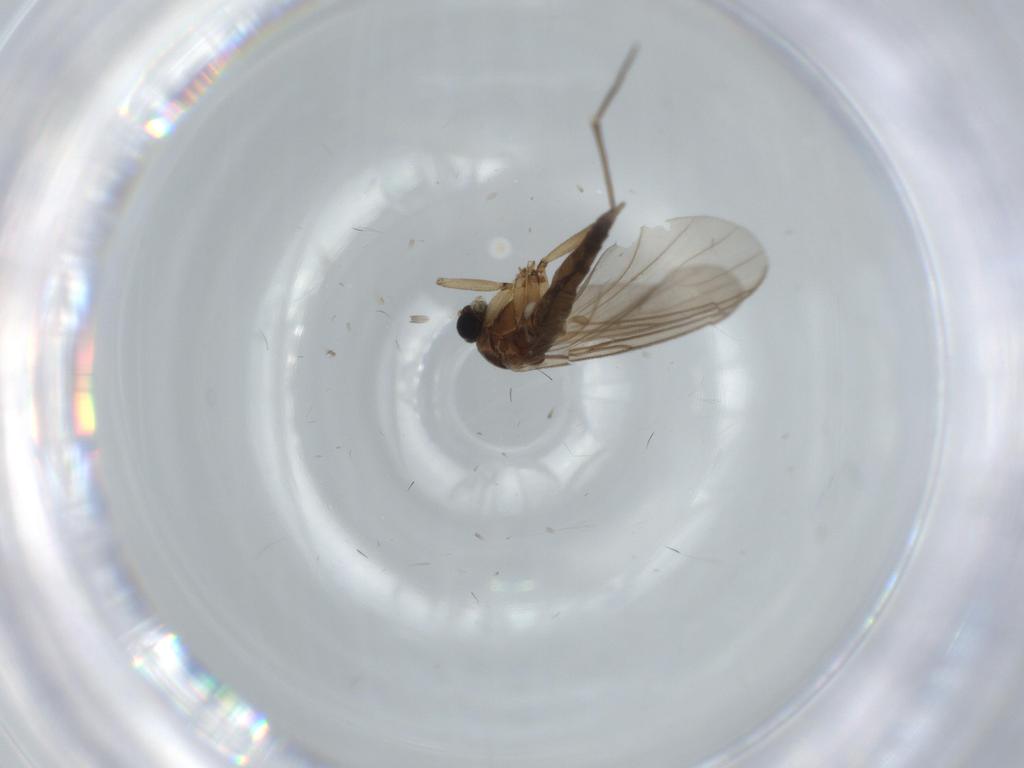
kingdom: Animalia
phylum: Arthropoda
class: Insecta
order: Diptera
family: Sciaridae
